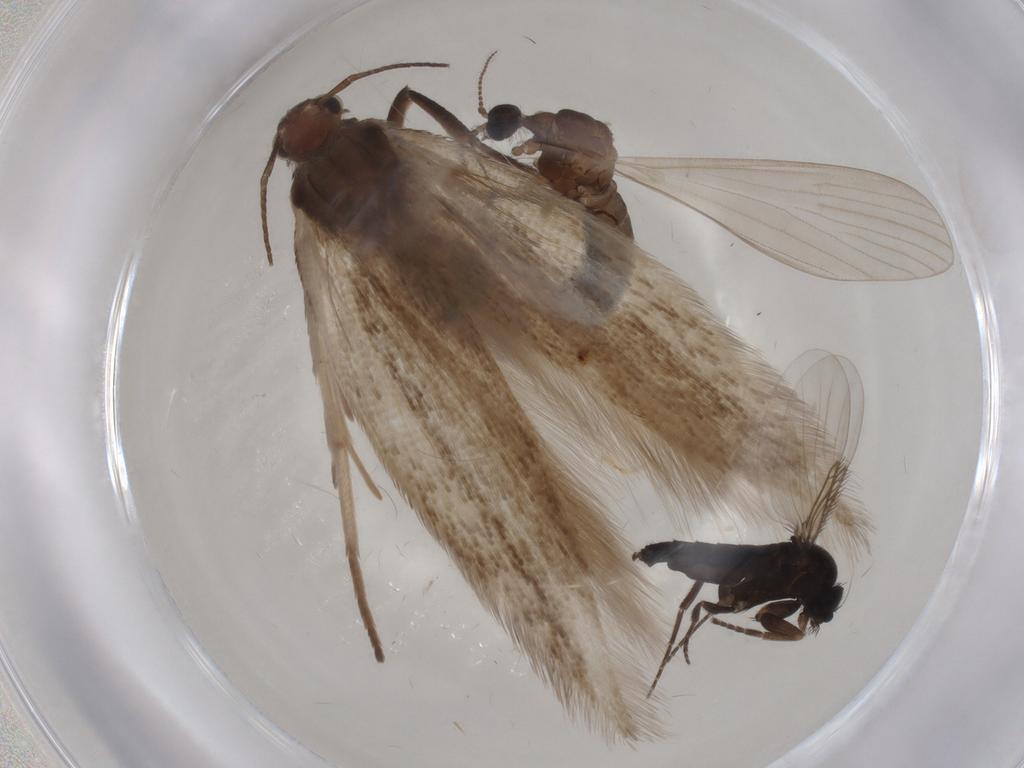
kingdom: Animalia
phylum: Arthropoda
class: Insecta
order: Diptera
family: Limoniidae
